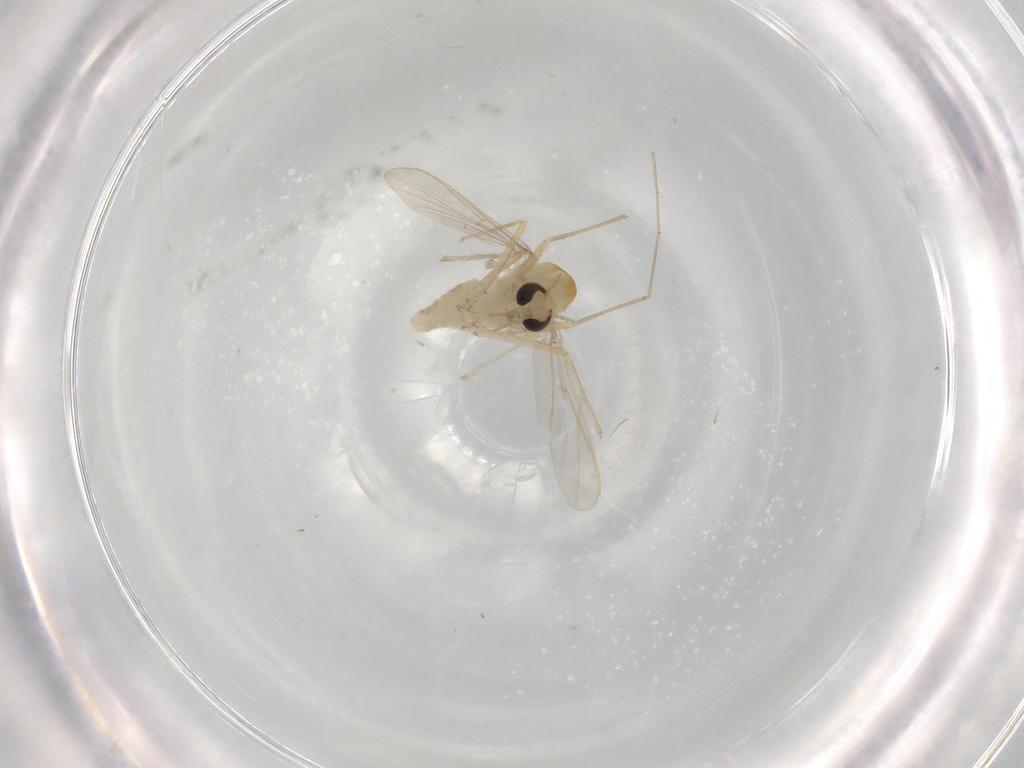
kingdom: Animalia
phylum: Arthropoda
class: Insecta
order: Diptera
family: Chironomidae
